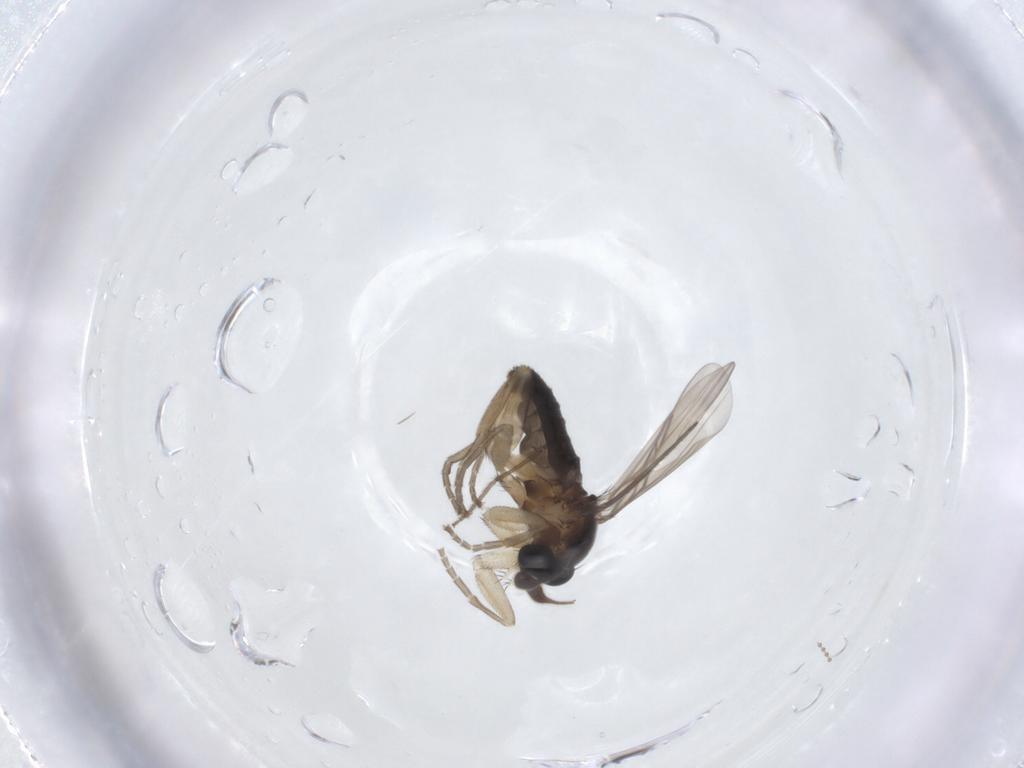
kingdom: Animalia
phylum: Arthropoda
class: Insecta
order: Diptera
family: Phoridae
